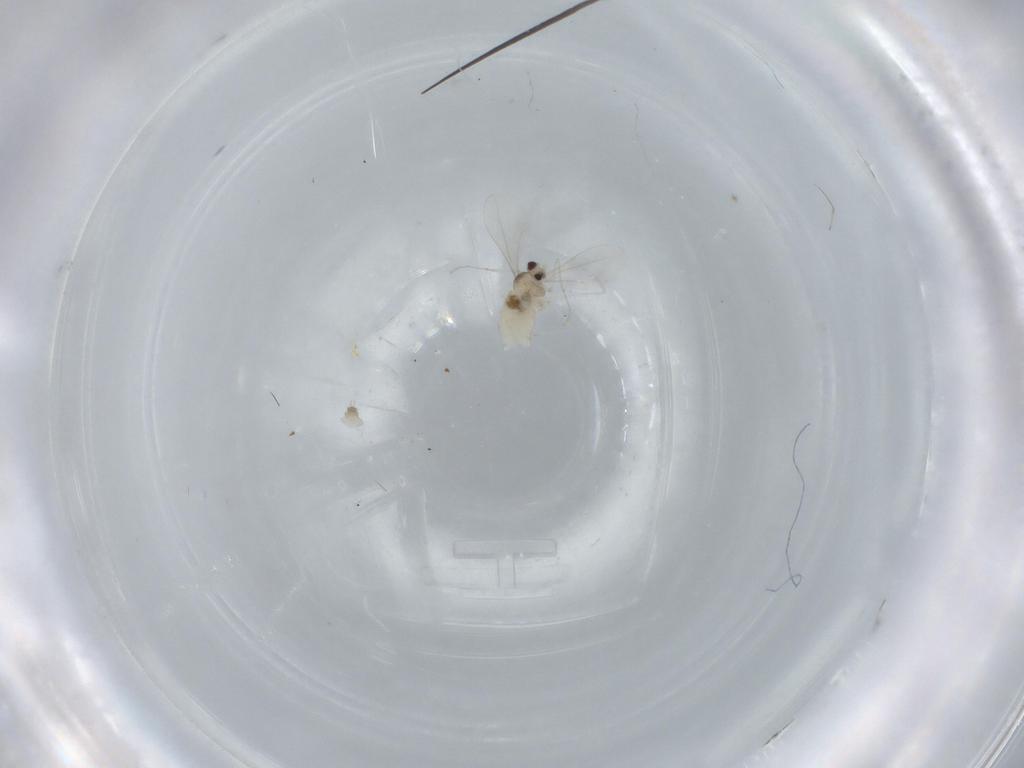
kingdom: Animalia
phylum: Arthropoda
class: Insecta
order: Diptera
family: Cecidomyiidae
